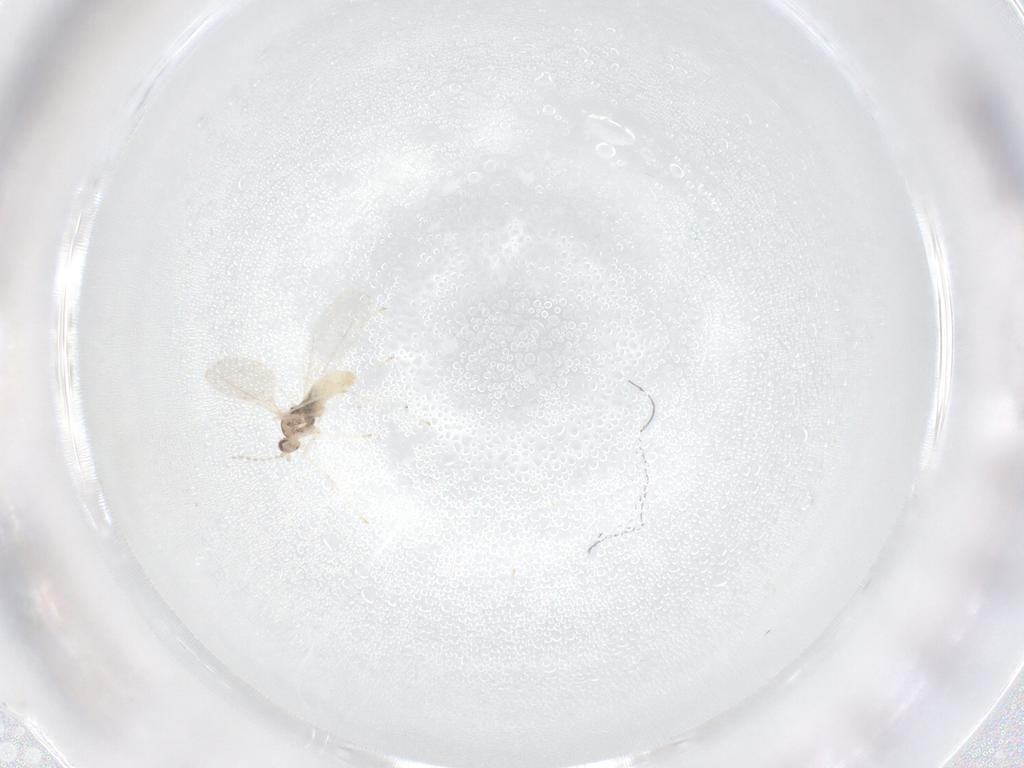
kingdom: Animalia
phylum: Arthropoda
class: Insecta
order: Diptera
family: Cecidomyiidae
